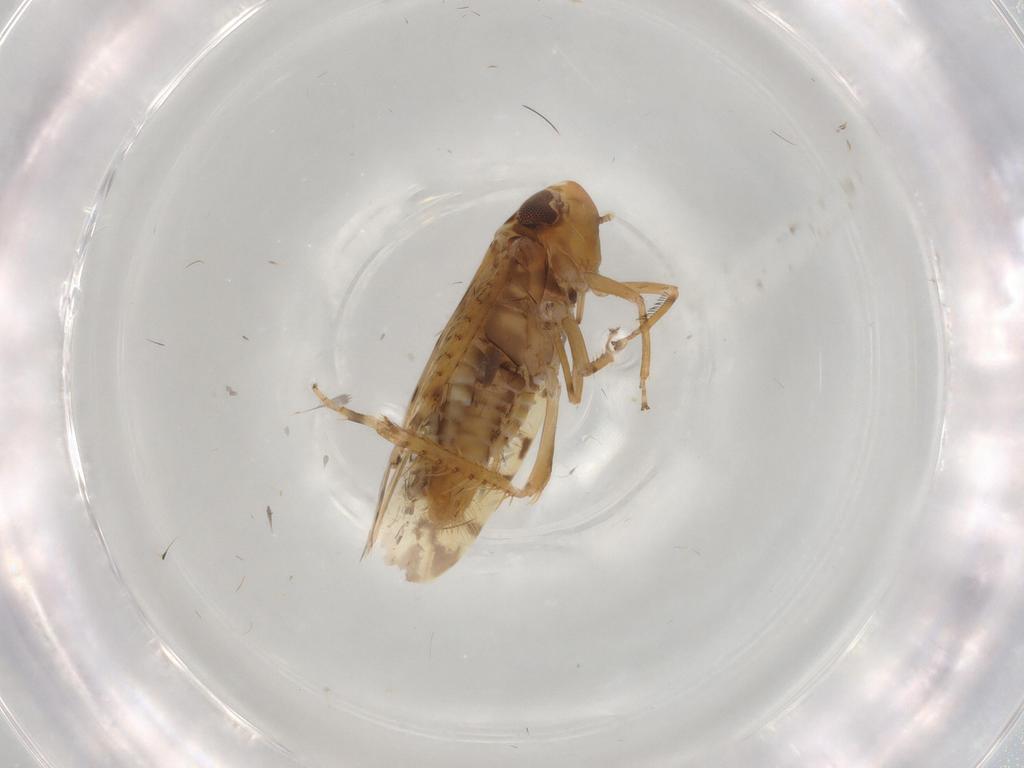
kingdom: Animalia
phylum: Arthropoda
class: Insecta
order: Hemiptera
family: Cicadellidae
